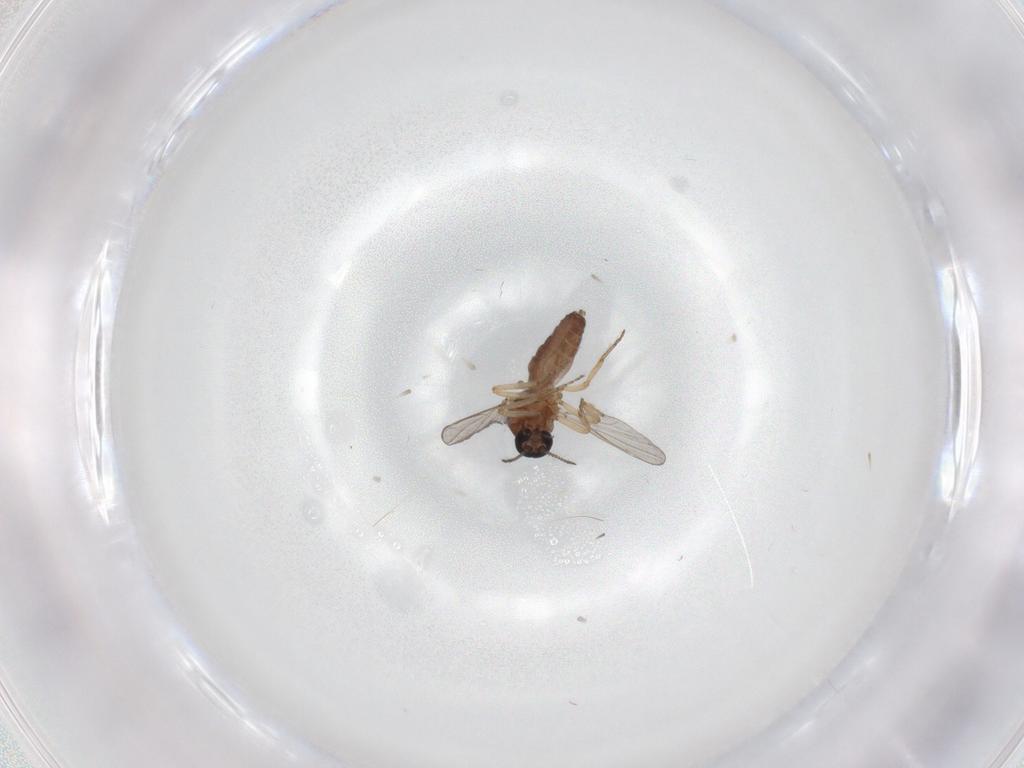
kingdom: Animalia
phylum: Arthropoda
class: Insecta
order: Diptera
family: Ceratopogonidae
